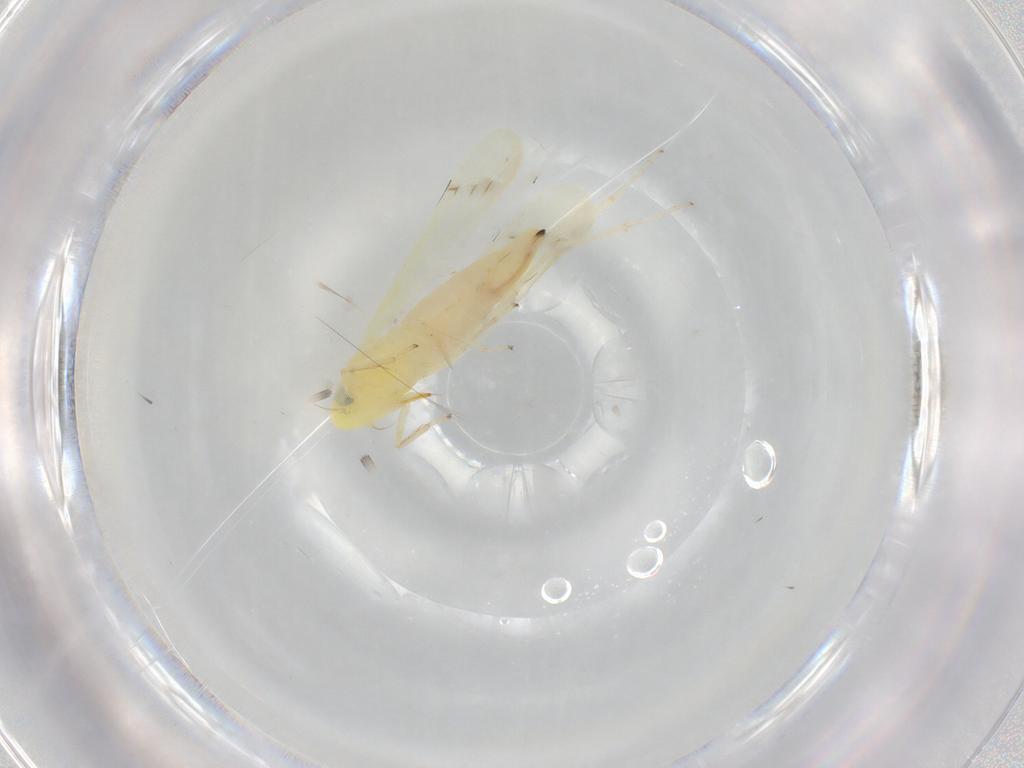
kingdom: Animalia
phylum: Arthropoda
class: Insecta
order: Hemiptera
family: Cicadellidae
